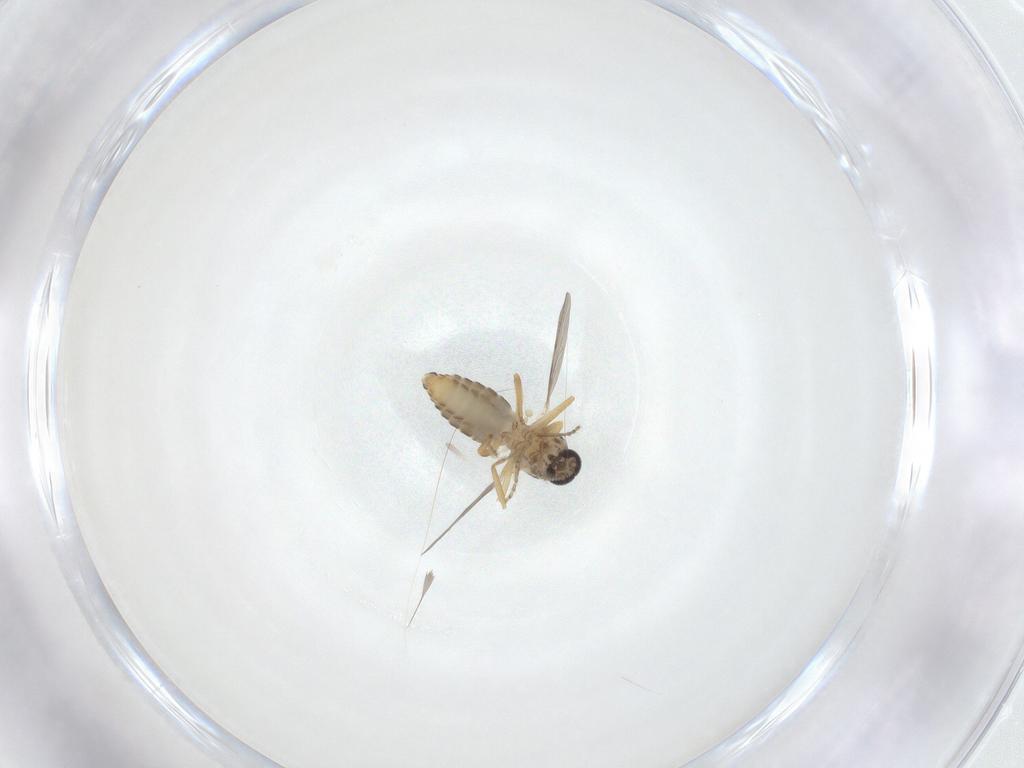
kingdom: Animalia
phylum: Arthropoda
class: Insecta
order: Diptera
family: Ceratopogonidae
